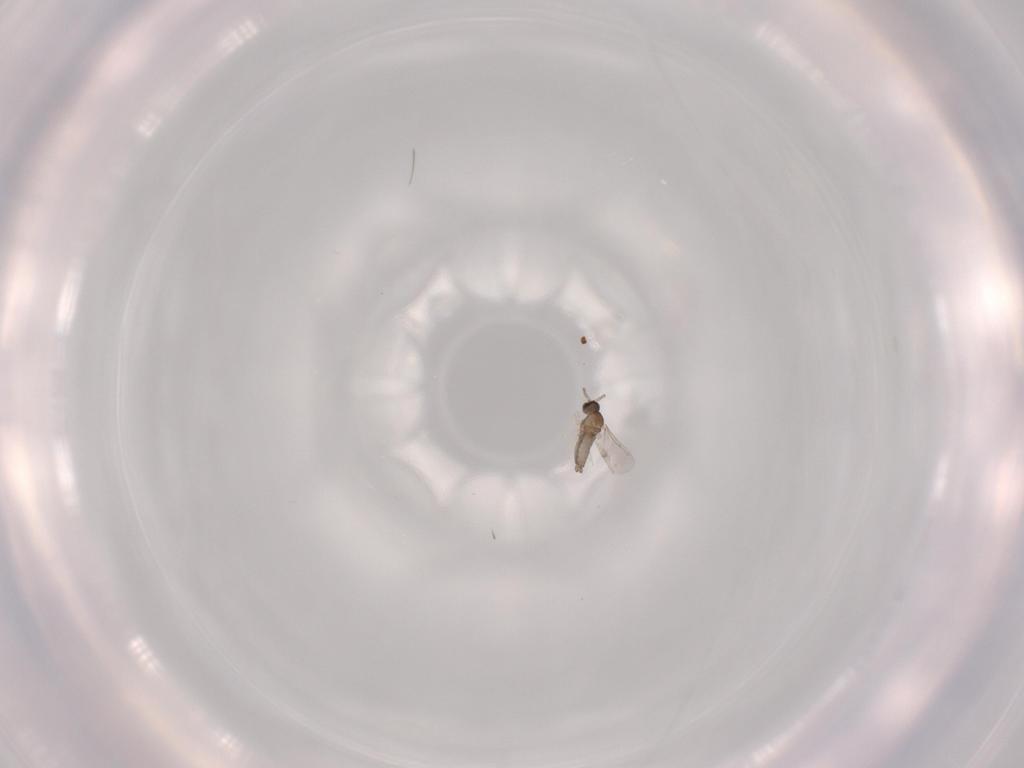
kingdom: Animalia
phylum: Arthropoda
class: Insecta
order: Diptera
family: Cecidomyiidae
